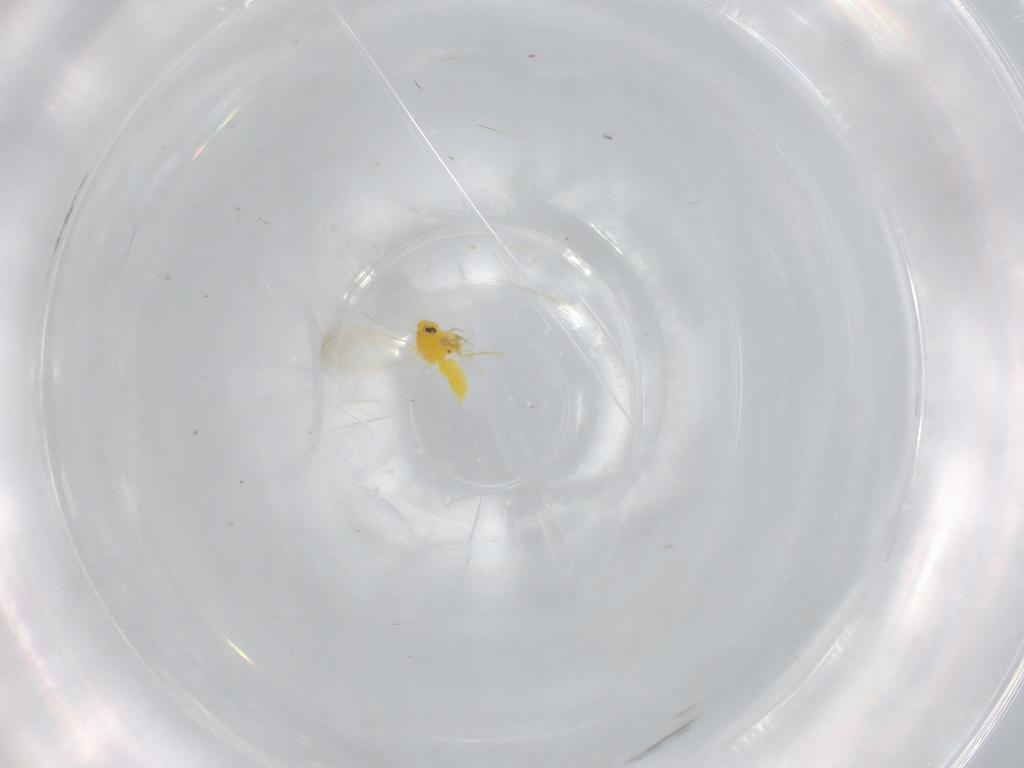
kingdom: Animalia
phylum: Arthropoda
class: Insecta
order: Hemiptera
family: Aleyrodidae
